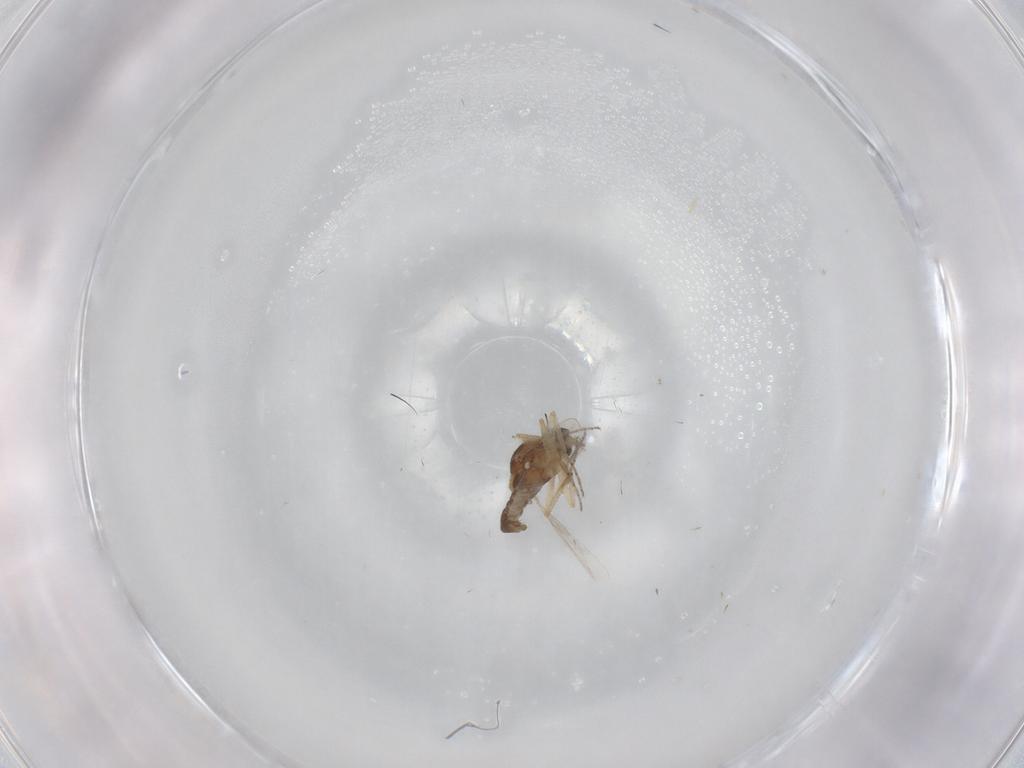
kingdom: Animalia
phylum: Arthropoda
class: Insecta
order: Diptera
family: Ceratopogonidae
